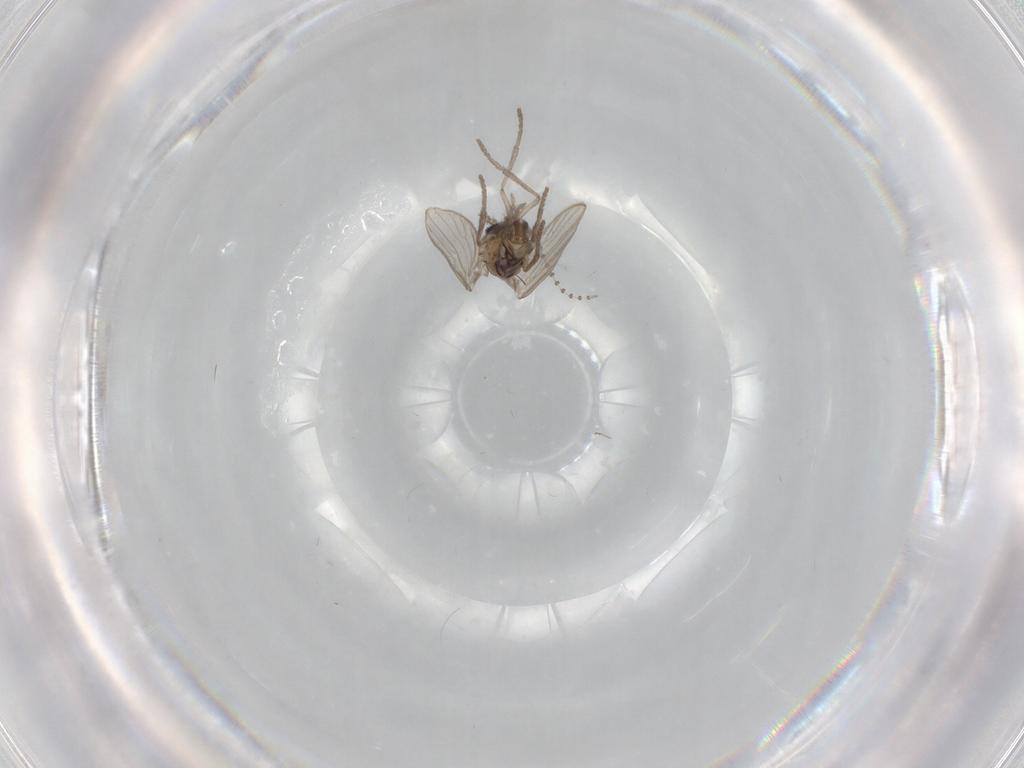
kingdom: Animalia
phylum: Arthropoda
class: Insecta
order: Diptera
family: Psychodidae
